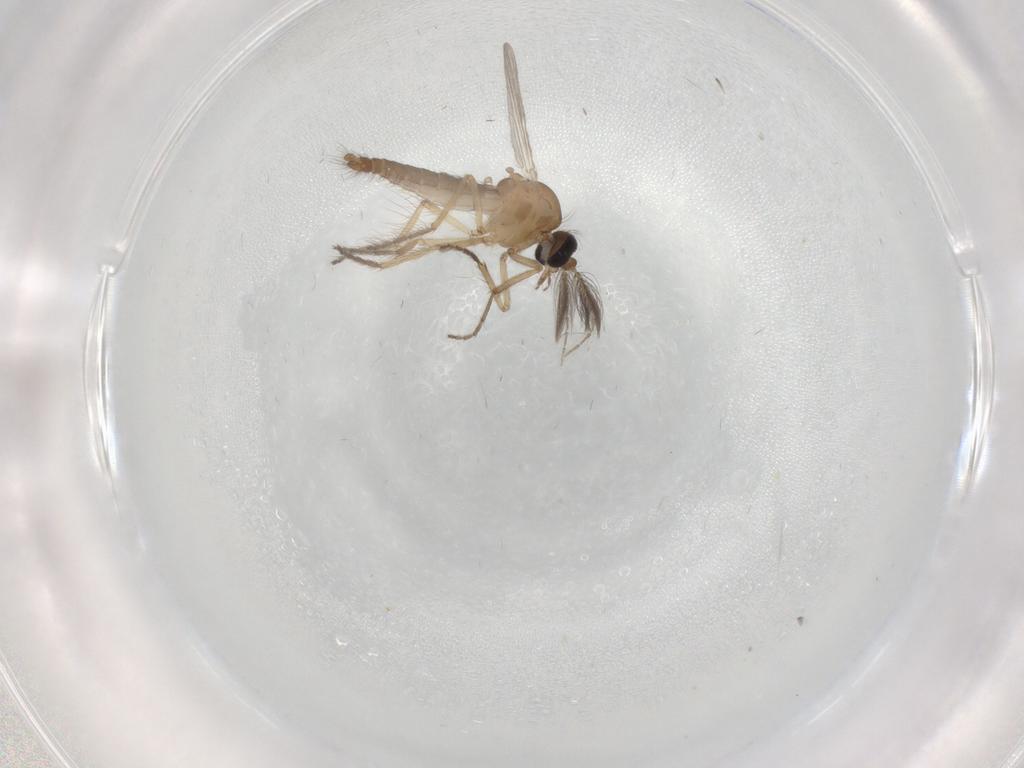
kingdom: Animalia
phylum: Arthropoda
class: Insecta
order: Diptera
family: Ceratopogonidae
